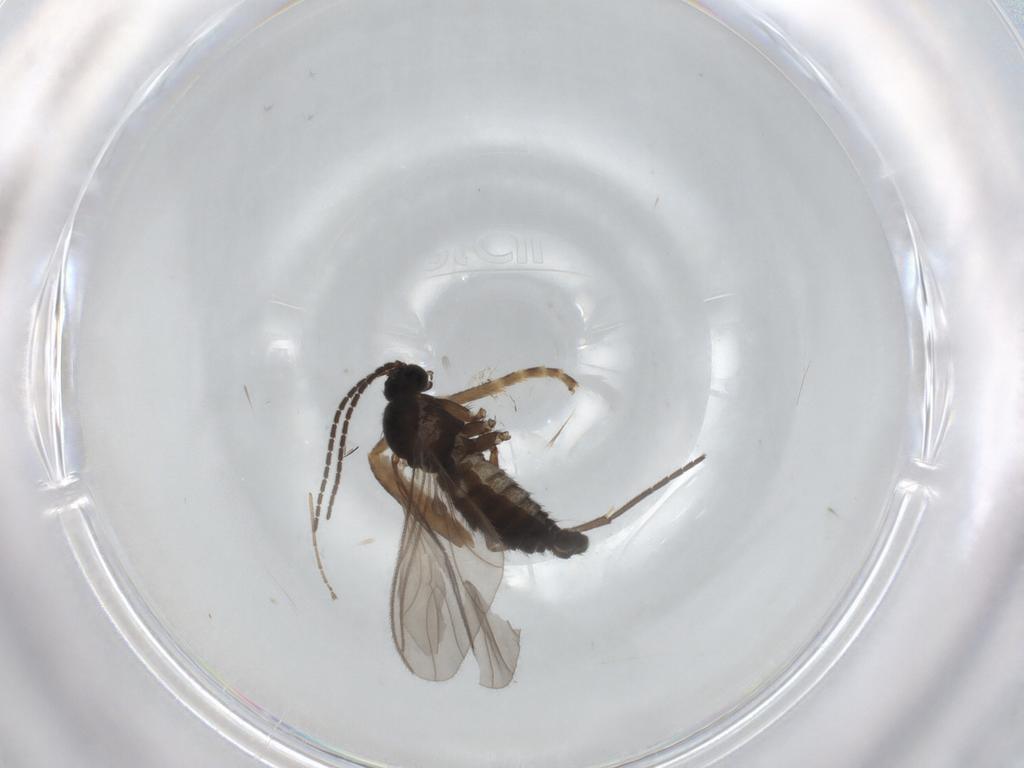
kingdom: Animalia
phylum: Arthropoda
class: Insecta
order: Diptera
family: Sciaridae
